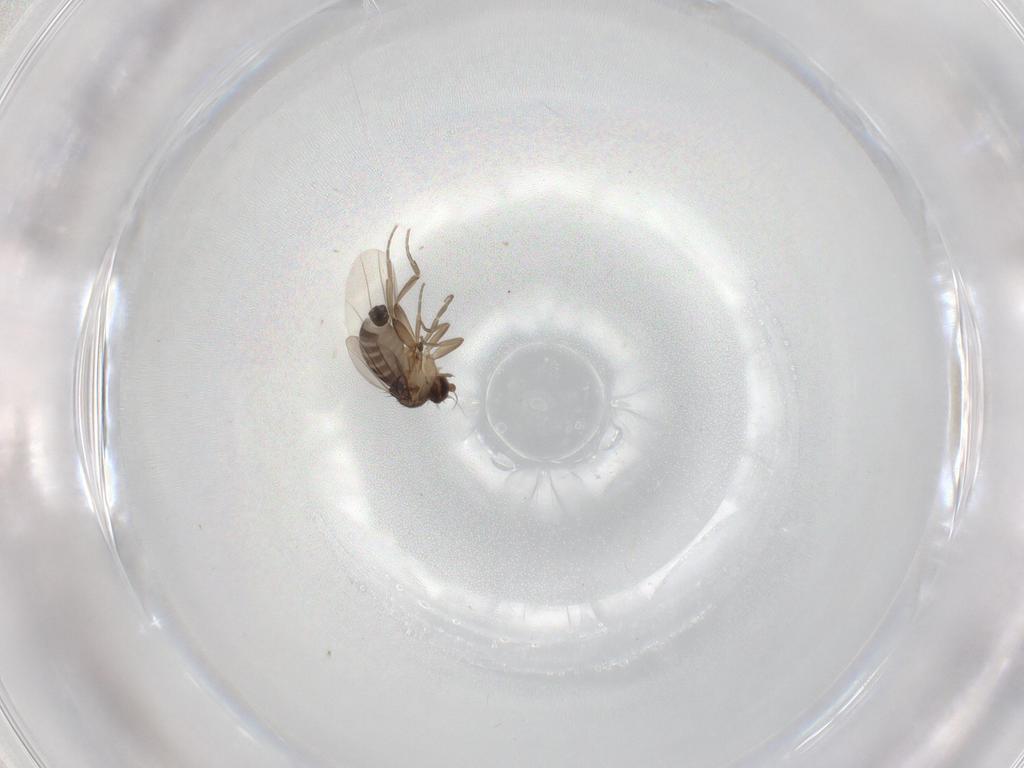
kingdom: Animalia
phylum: Arthropoda
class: Insecta
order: Diptera
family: Phoridae
